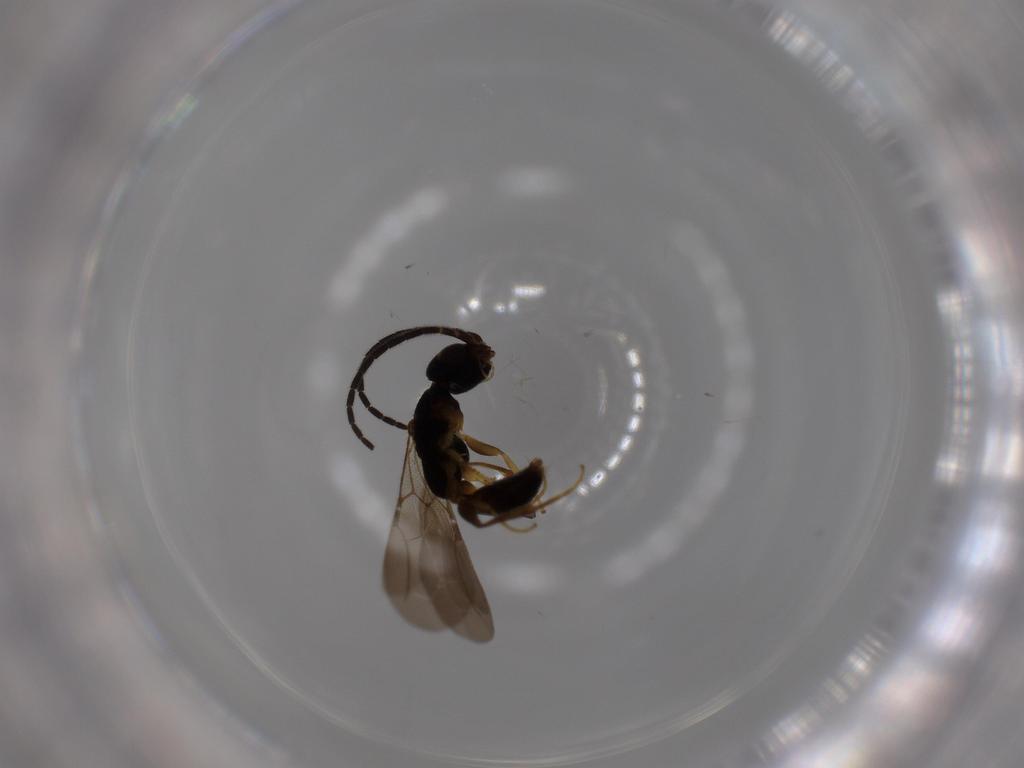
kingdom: Animalia
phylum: Arthropoda
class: Insecta
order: Hymenoptera
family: Bethylidae
